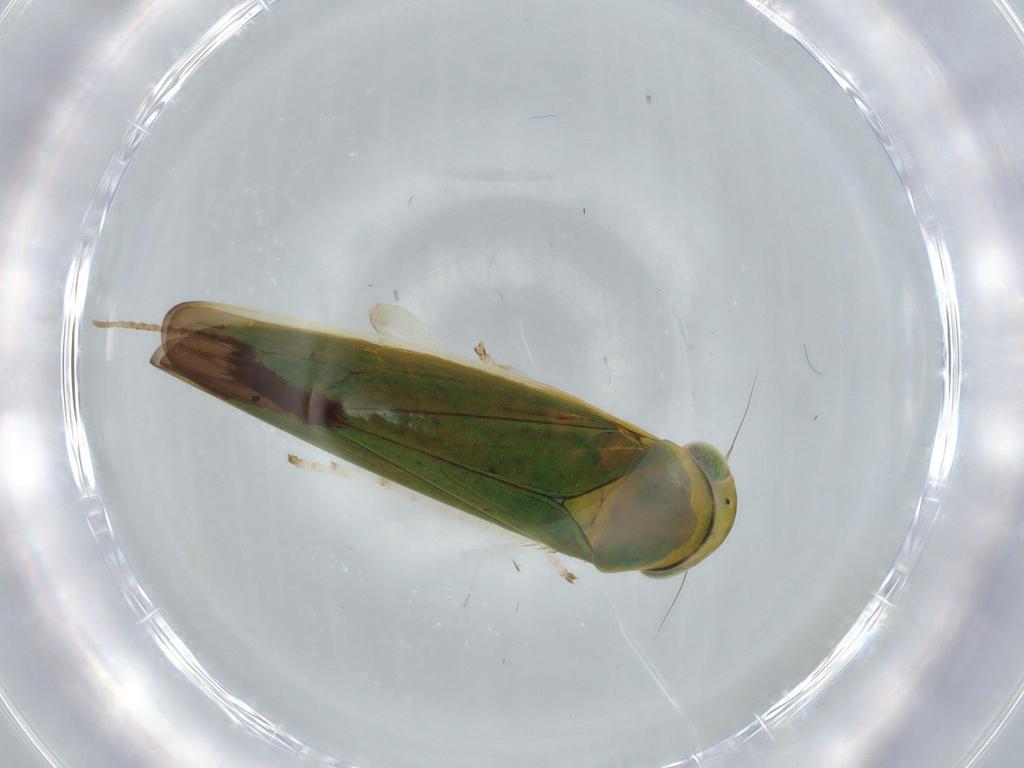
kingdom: Animalia
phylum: Arthropoda
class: Insecta
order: Hemiptera
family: Cicadellidae
